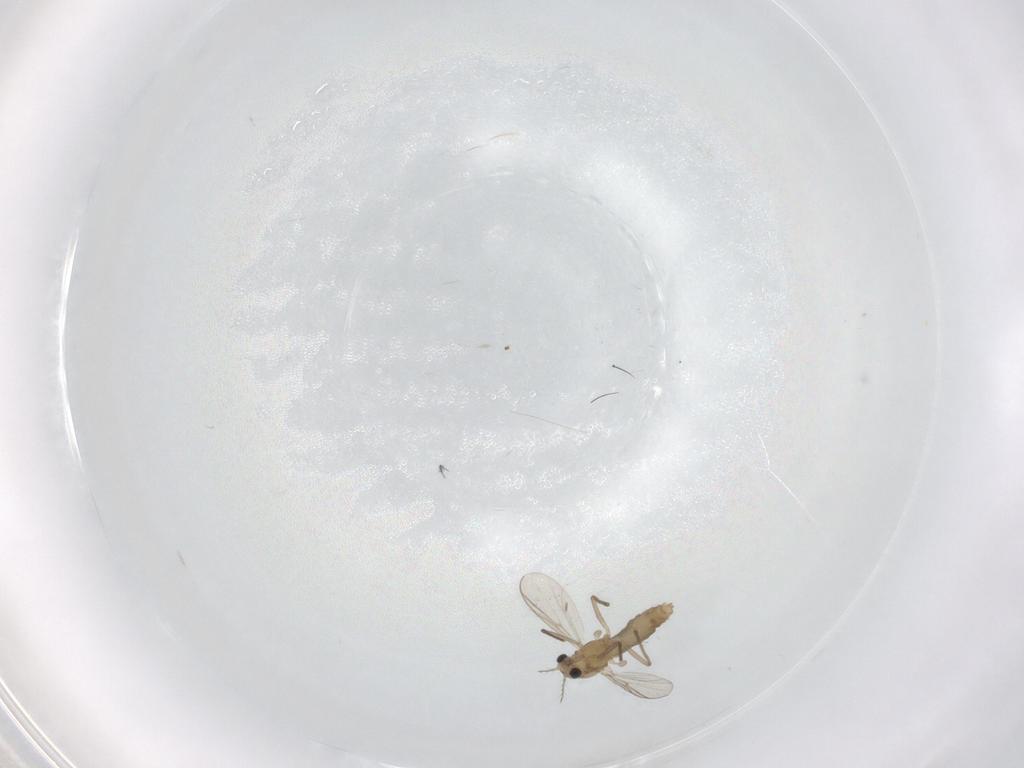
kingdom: Animalia
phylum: Arthropoda
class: Insecta
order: Diptera
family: Chironomidae
